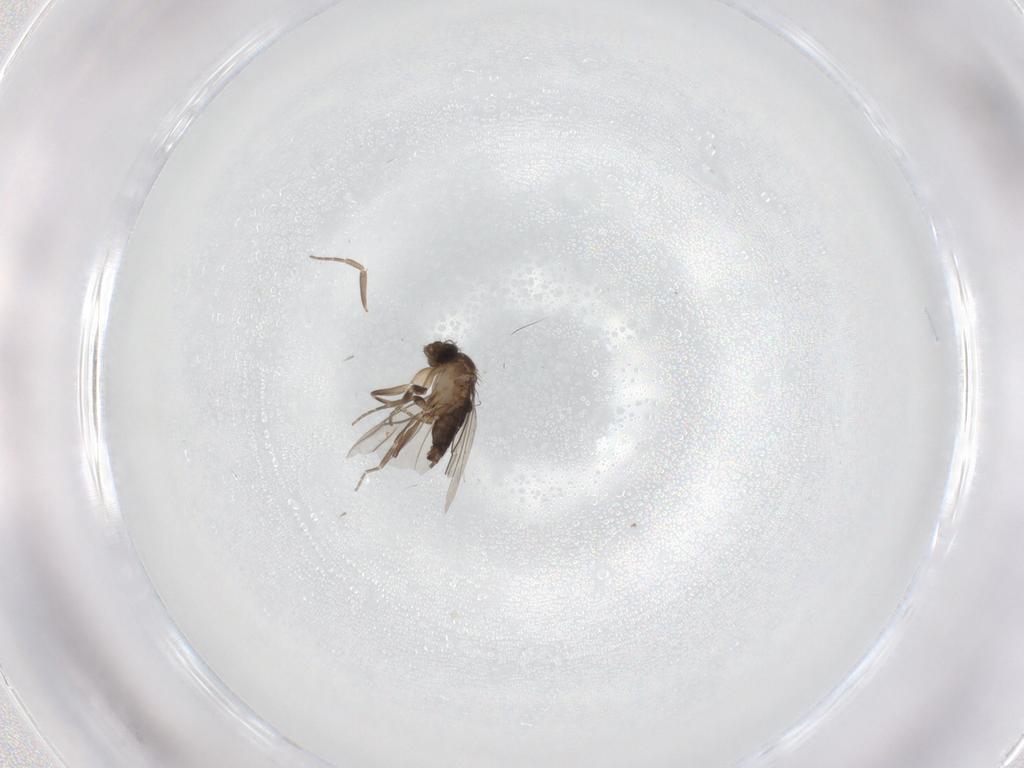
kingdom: Animalia
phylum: Arthropoda
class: Insecta
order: Diptera
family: Phoridae
